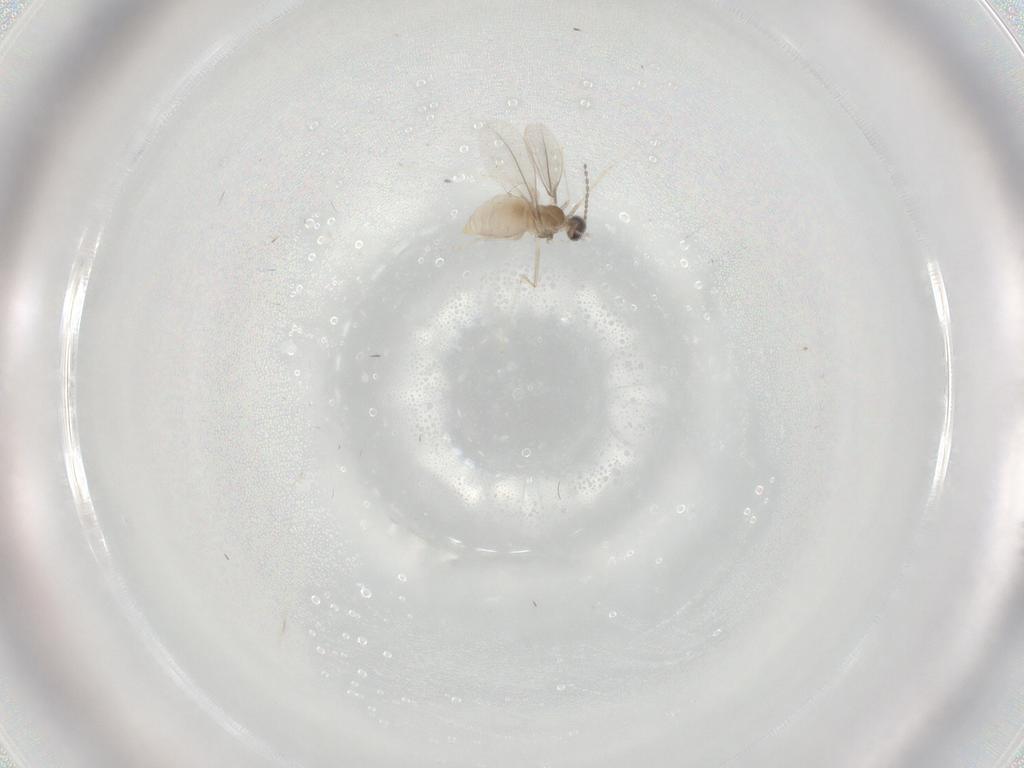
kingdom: Animalia
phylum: Arthropoda
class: Insecta
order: Diptera
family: Cecidomyiidae
